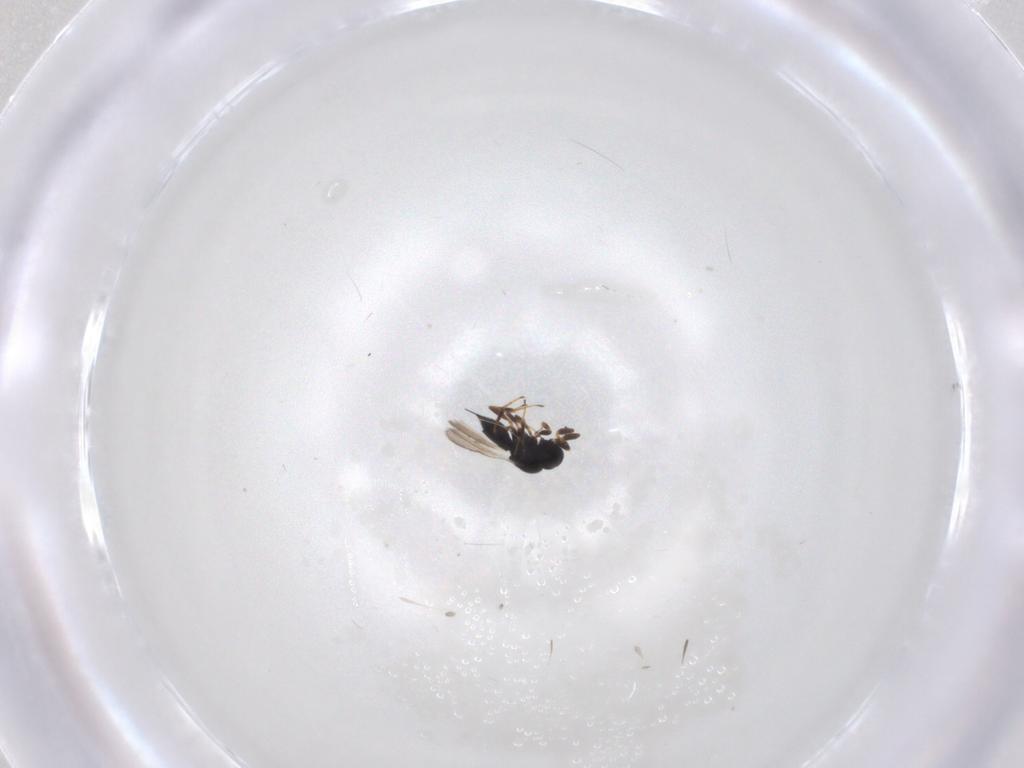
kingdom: Animalia
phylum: Arthropoda
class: Insecta
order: Hymenoptera
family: Scelionidae
